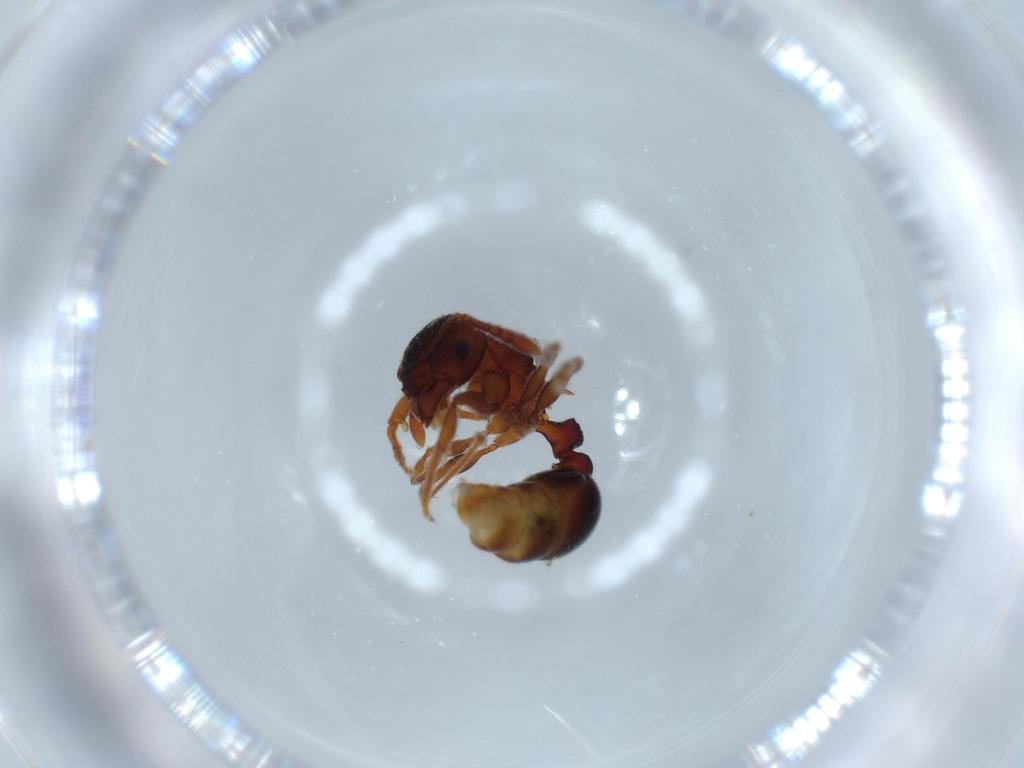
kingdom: Animalia
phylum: Arthropoda
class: Insecta
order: Hymenoptera
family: Formicidae
